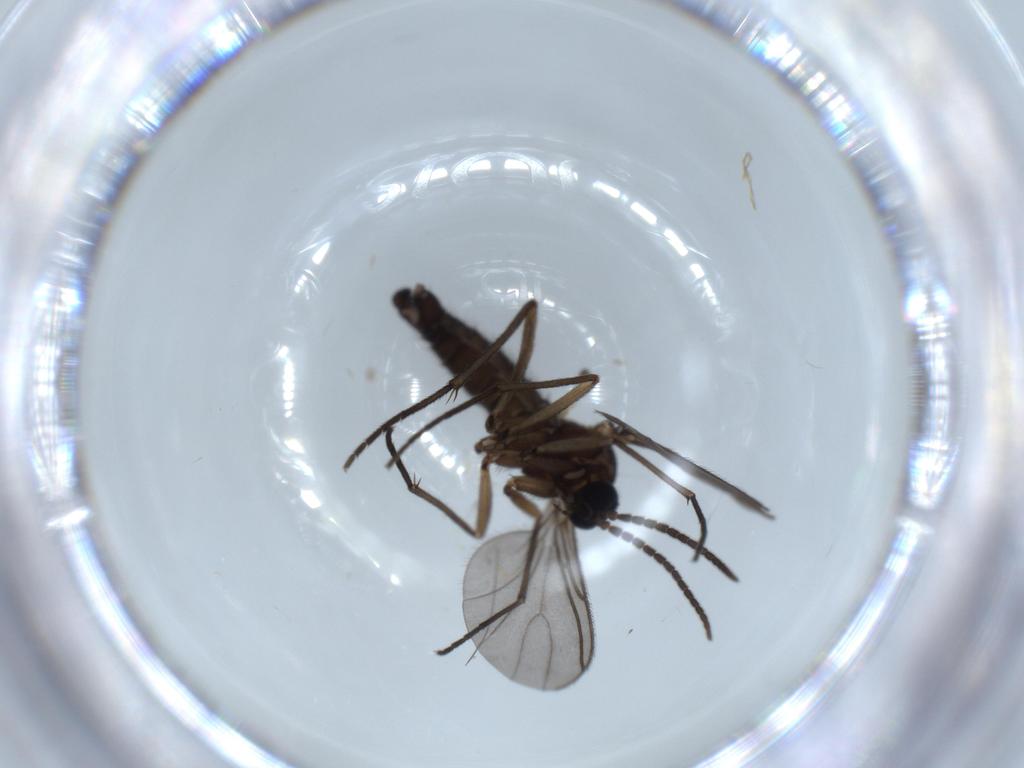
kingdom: Animalia
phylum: Arthropoda
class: Insecta
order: Diptera
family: Sciaridae
